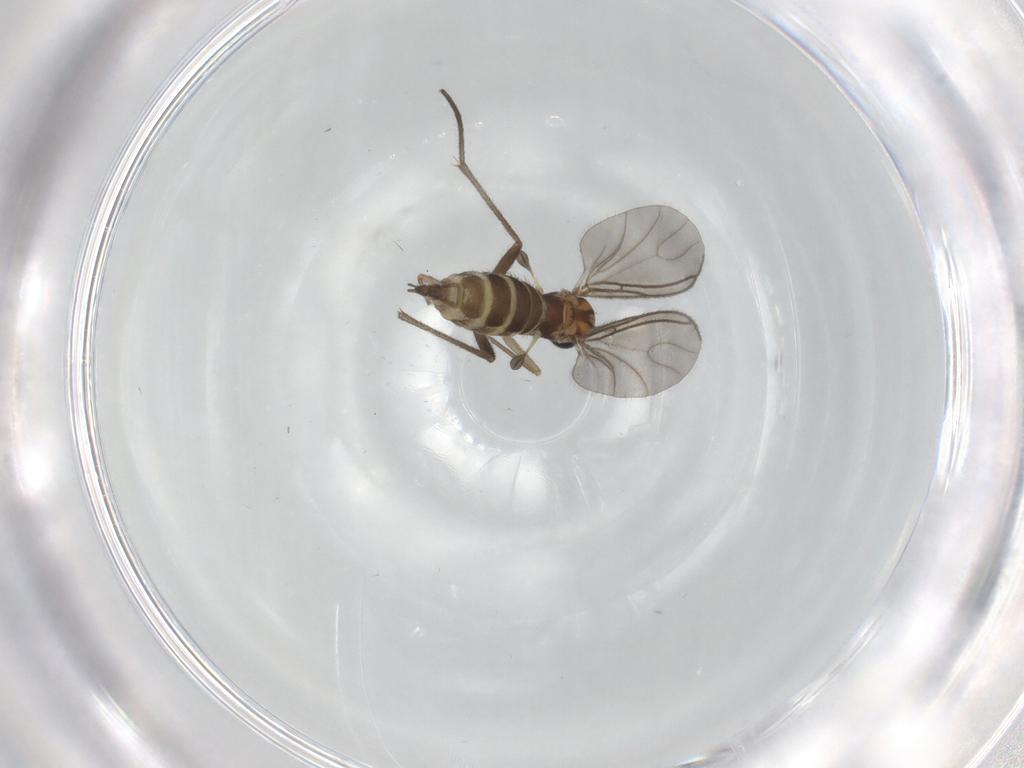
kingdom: Animalia
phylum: Arthropoda
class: Insecta
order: Diptera
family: Sciaridae
